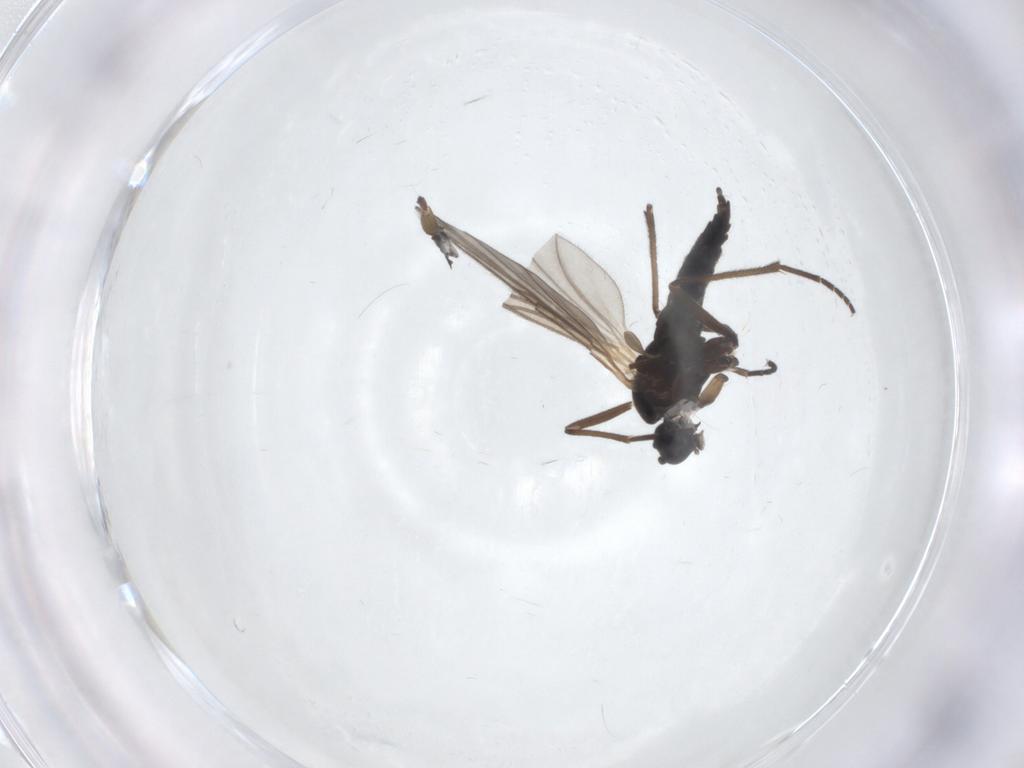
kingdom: Animalia
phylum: Arthropoda
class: Insecta
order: Diptera
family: Sciaridae
